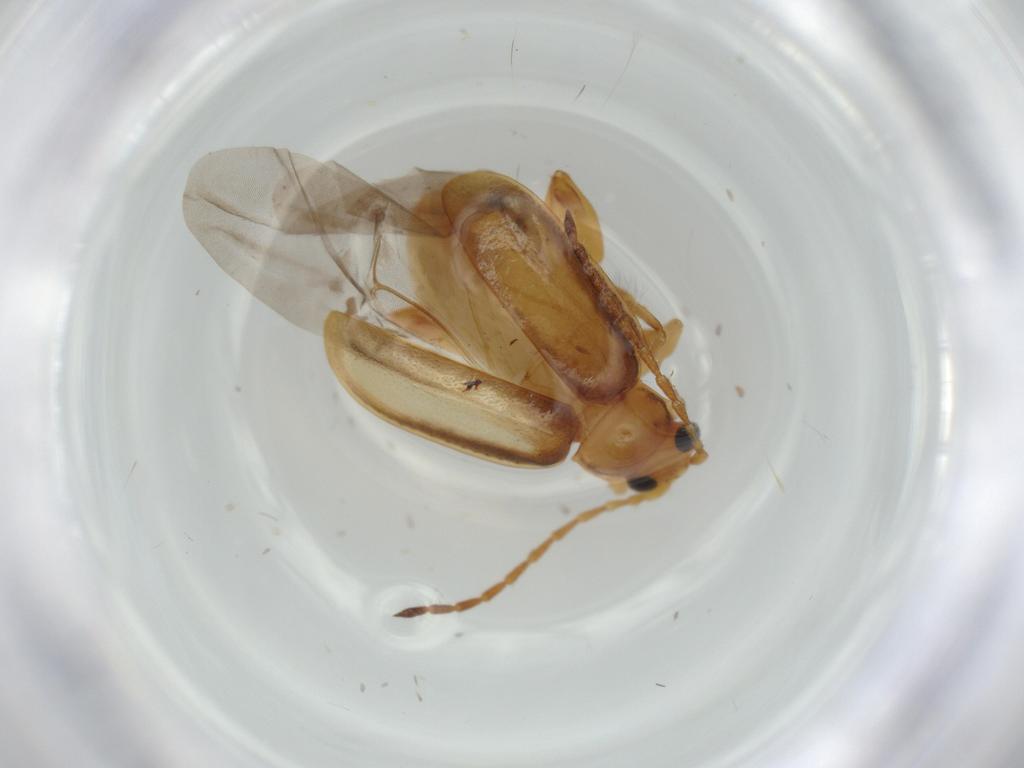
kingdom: Animalia
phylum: Arthropoda
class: Insecta
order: Coleoptera
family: Chrysomelidae
